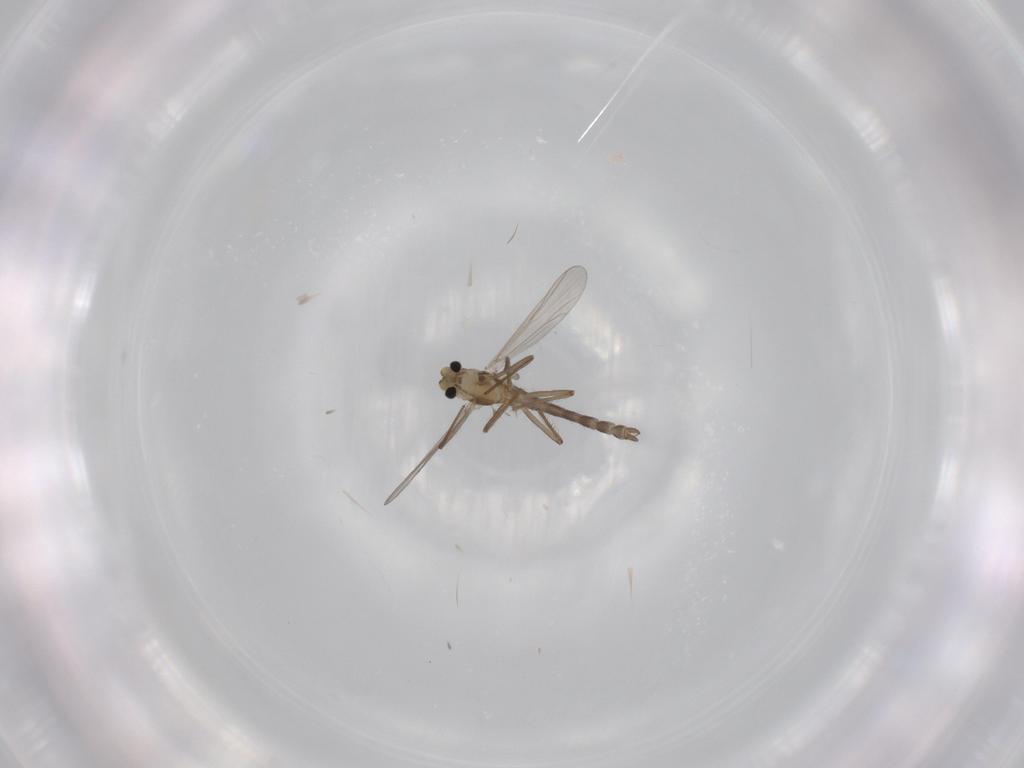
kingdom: Animalia
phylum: Arthropoda
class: Insecta
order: Diptera
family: Chironomidae
